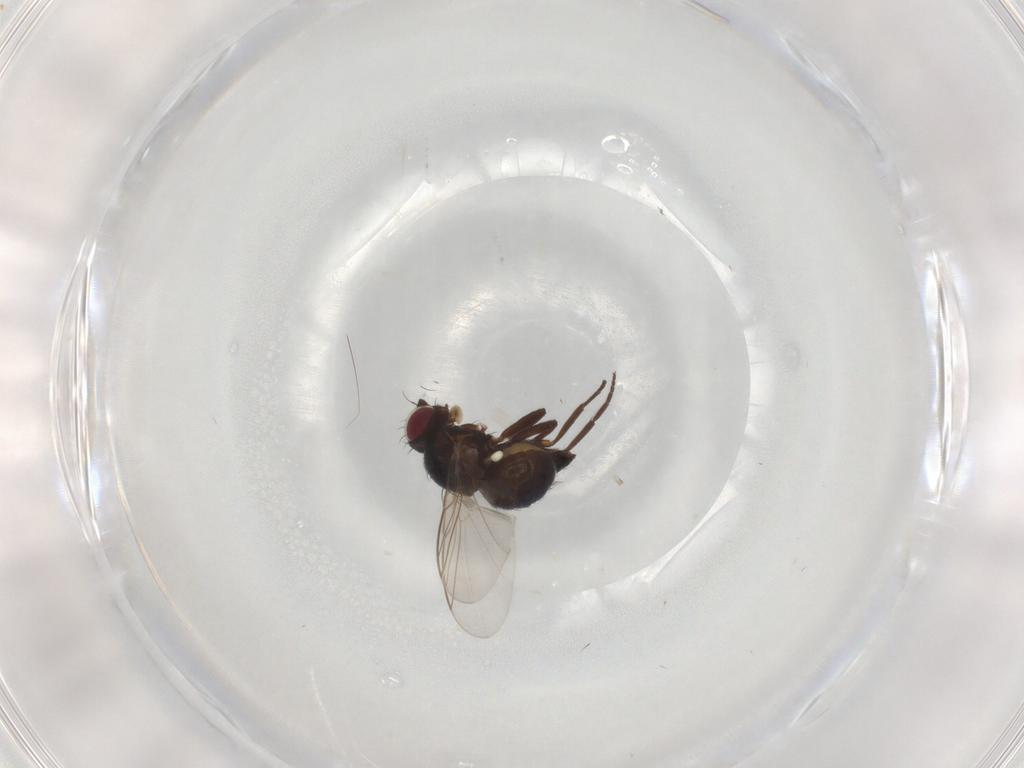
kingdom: Animalia
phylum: Arthropoda
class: Insecta
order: Diptera
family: Agromyzidae
